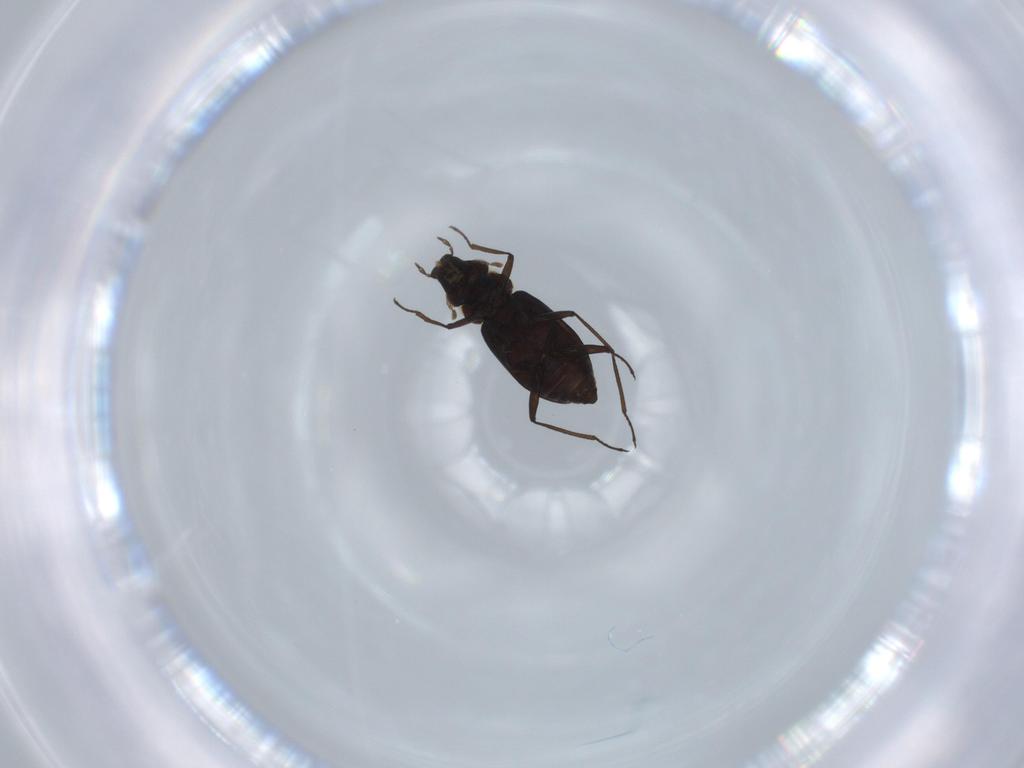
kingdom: Animalia
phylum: Arthropoda
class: Insecta
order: Coleoptera
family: Hydraenidae
